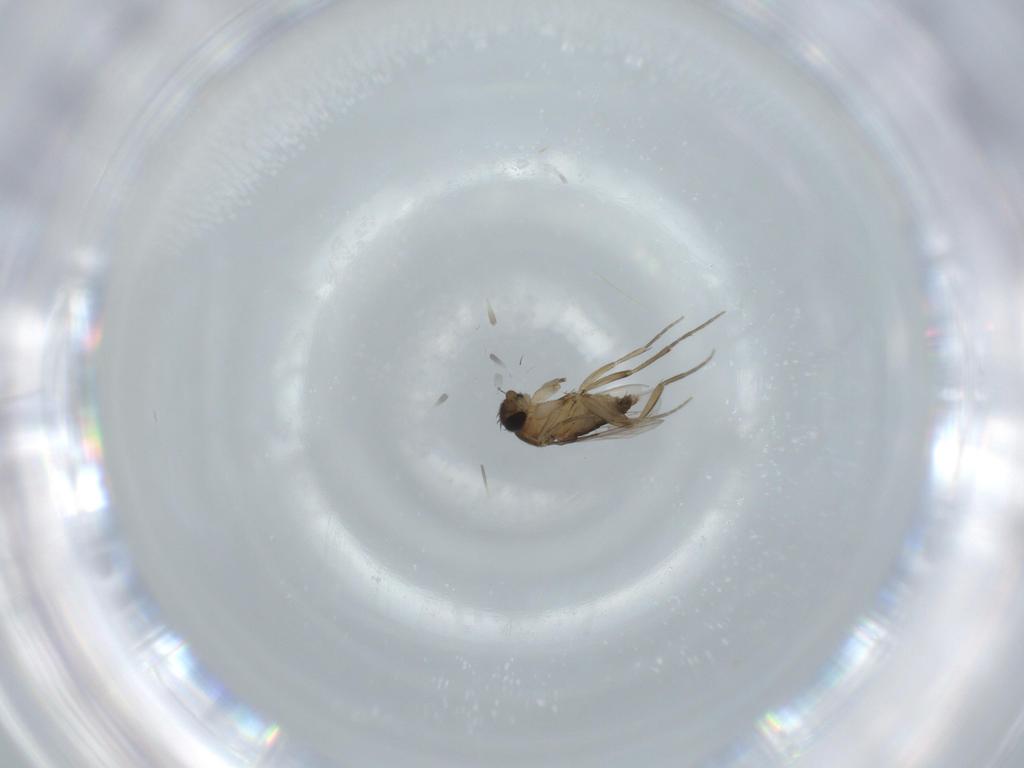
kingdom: Animalia
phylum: Arthropoda
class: Insecta
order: Diptera
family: Phoridae
